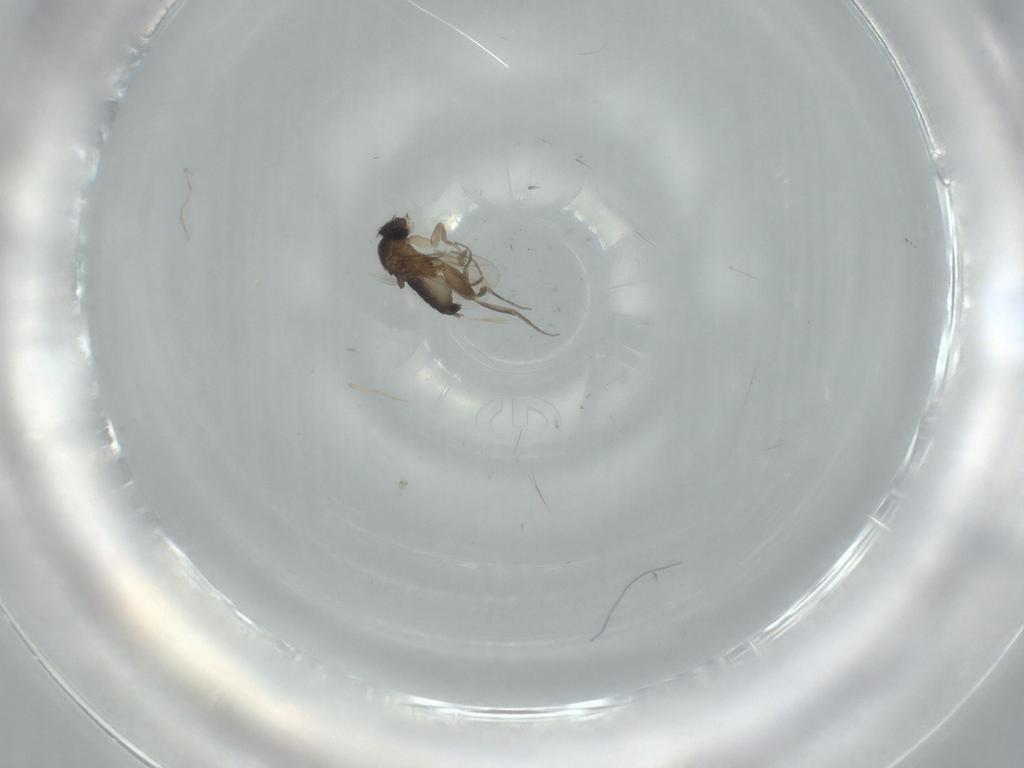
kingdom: Animalia
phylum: Arthropoda
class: Insecta
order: Diptera
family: Phoridae
